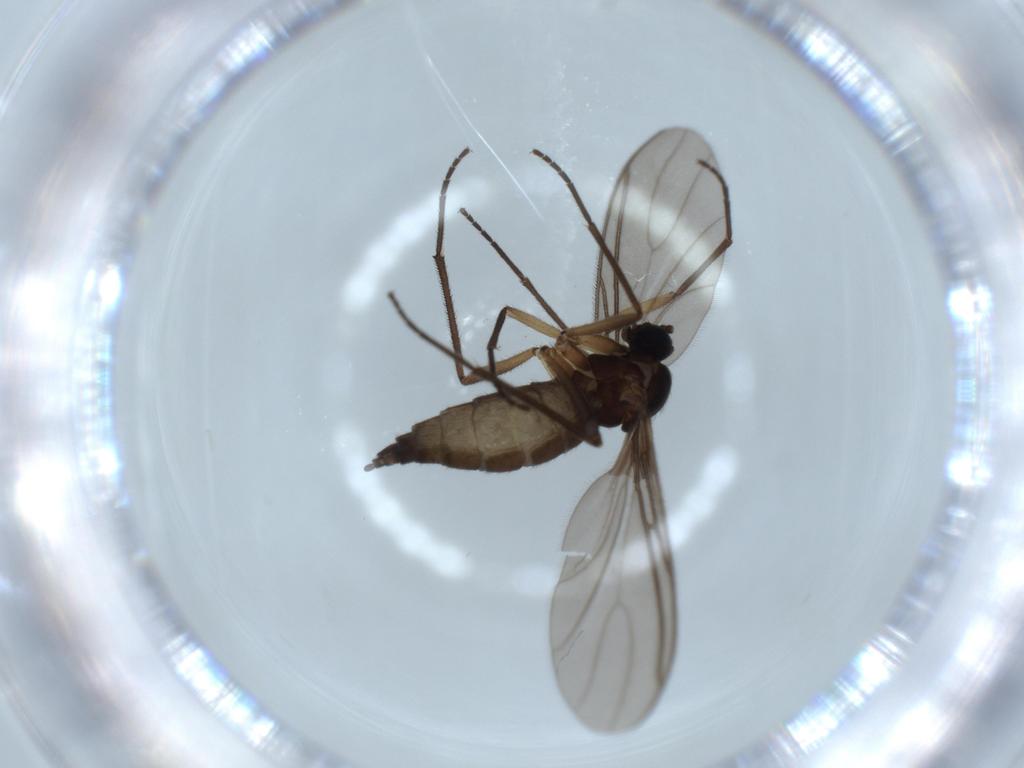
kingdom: Animalia
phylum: Arthropoda
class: Insecta
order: Diptera
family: Sciaridae
